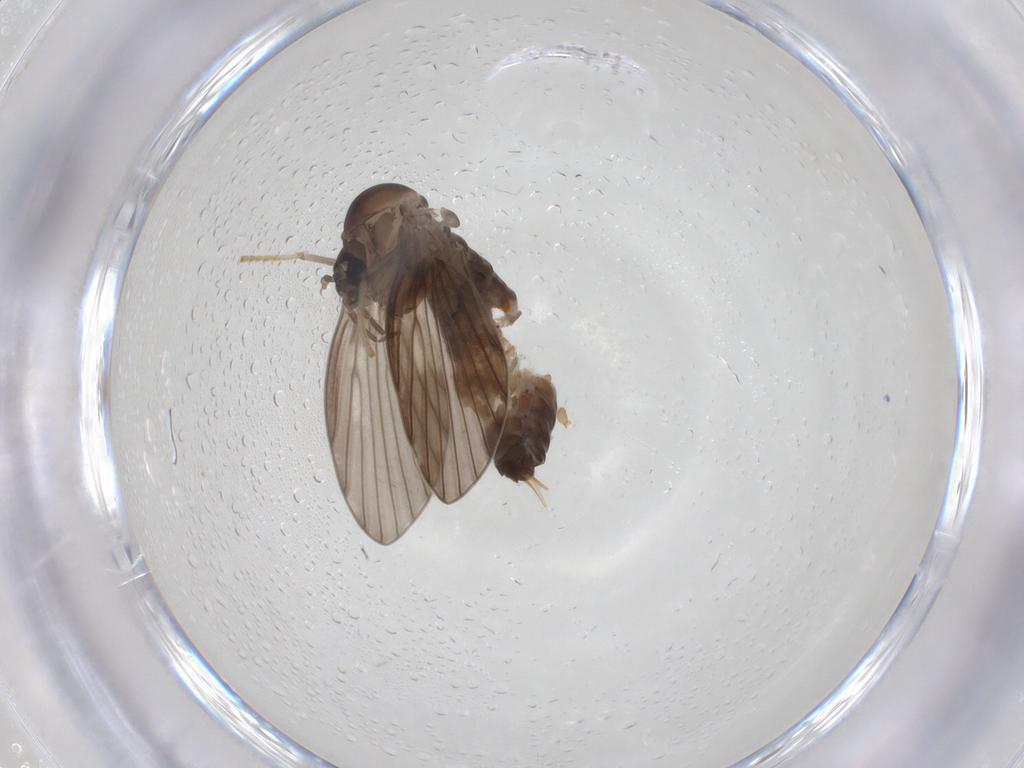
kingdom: Animalia
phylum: Arthropoda
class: Insecta
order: Diptera
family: Psychodidae
